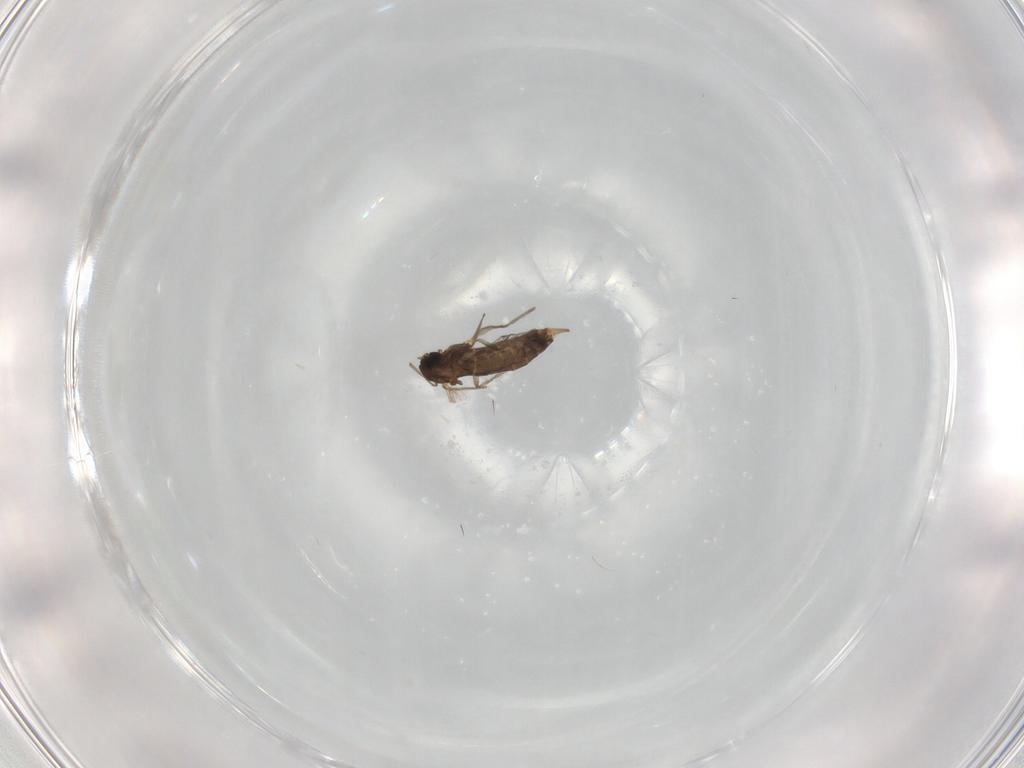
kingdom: Animalia
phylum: Arthropoda
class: Insecta
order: Diptera
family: Chironomidae
